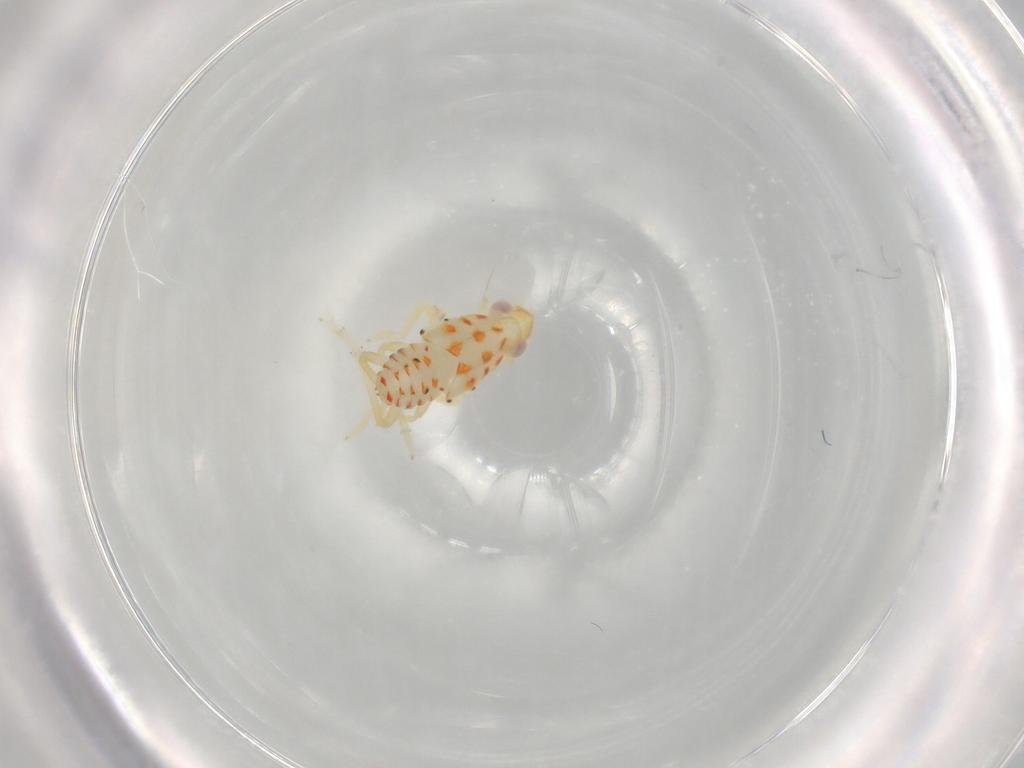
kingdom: Animalia
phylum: Arthropoda
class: Insecta
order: Hemiptera
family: Tropiduchidae
